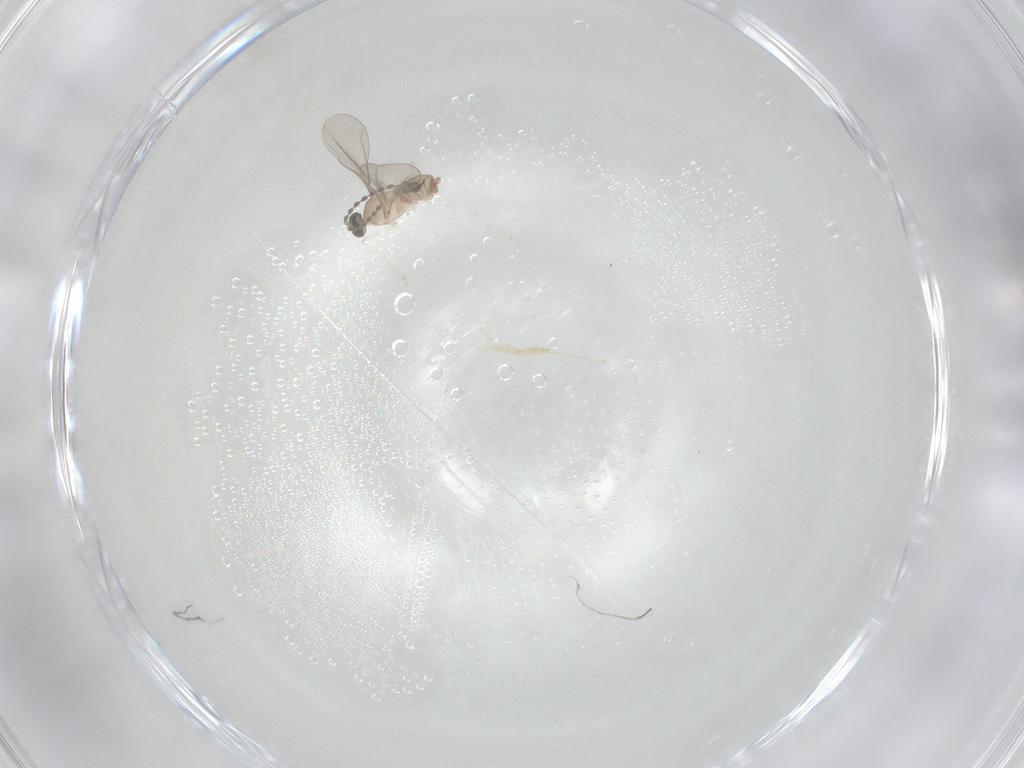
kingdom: Animalia
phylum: Arthropoda
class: Insecta
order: Diptera
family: Cecidomyiidae
